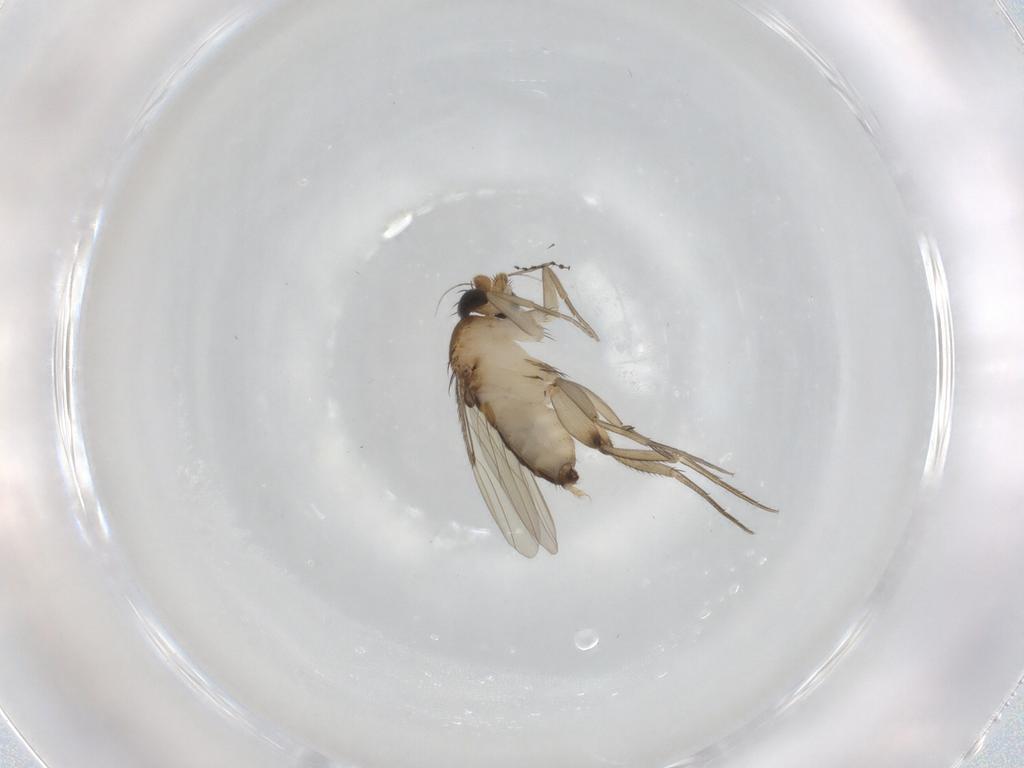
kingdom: Animalia
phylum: Arthropoda
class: Insecta
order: Diptera
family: Phoridae
